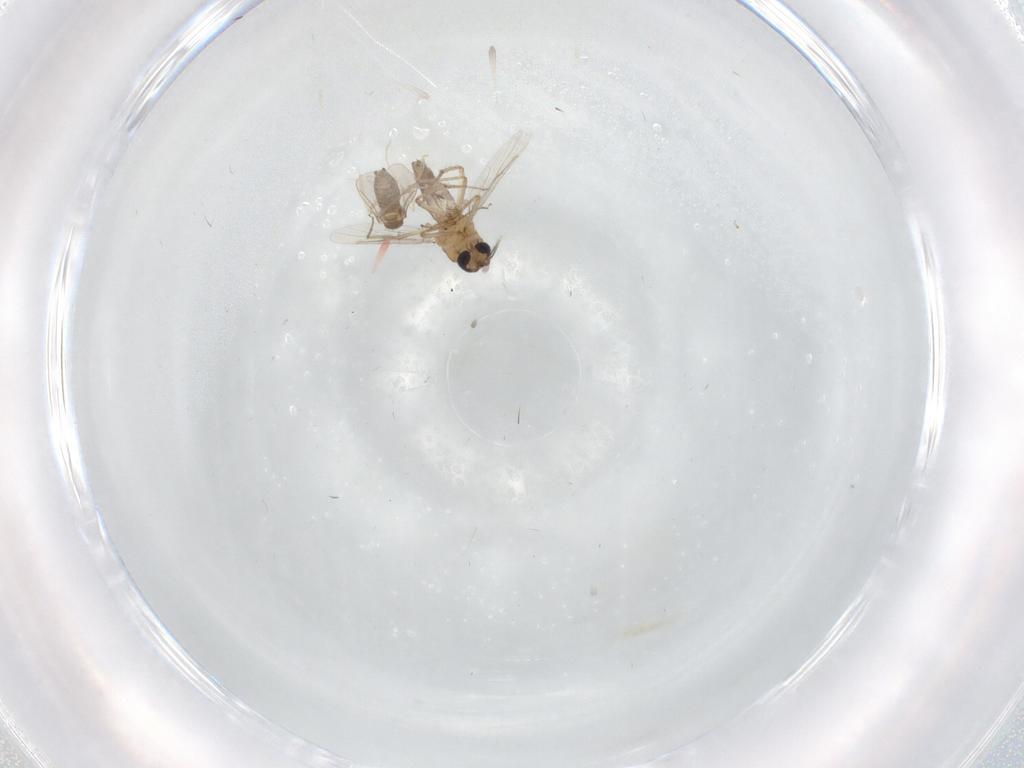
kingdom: Animalia
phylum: Arthropoda
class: Insecta
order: Diptera
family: Cecidomyiidae
